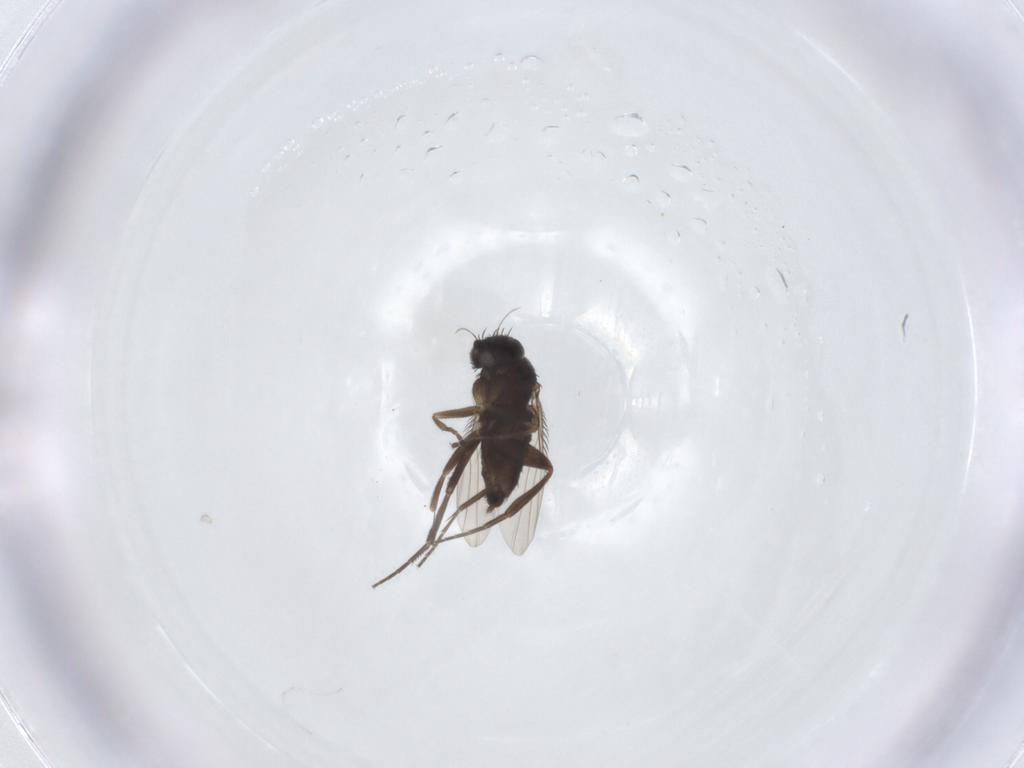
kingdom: Animalia
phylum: Arthropoda
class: Insecta
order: Diptera
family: Phoridae
